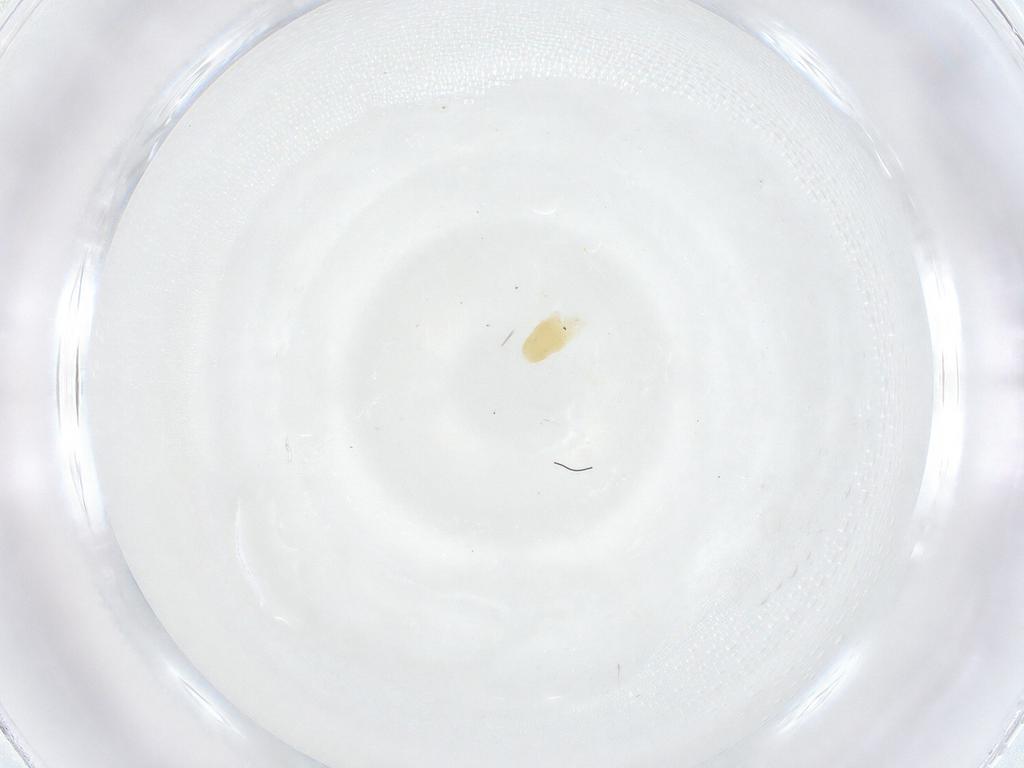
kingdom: Animalia
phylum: Arthropoda
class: Arachnida
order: Trombidiformes
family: Stigmaeidae
